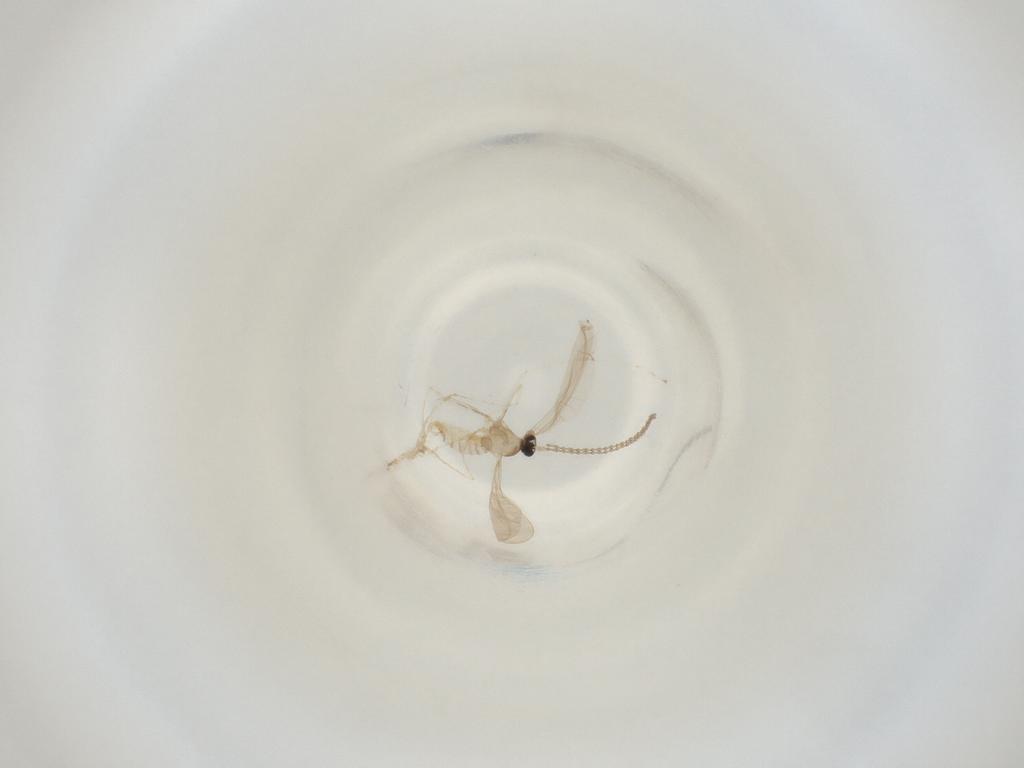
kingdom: Animalia
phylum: Arthropoda
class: Insecta
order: Diptera
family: Cecidomyiidae
